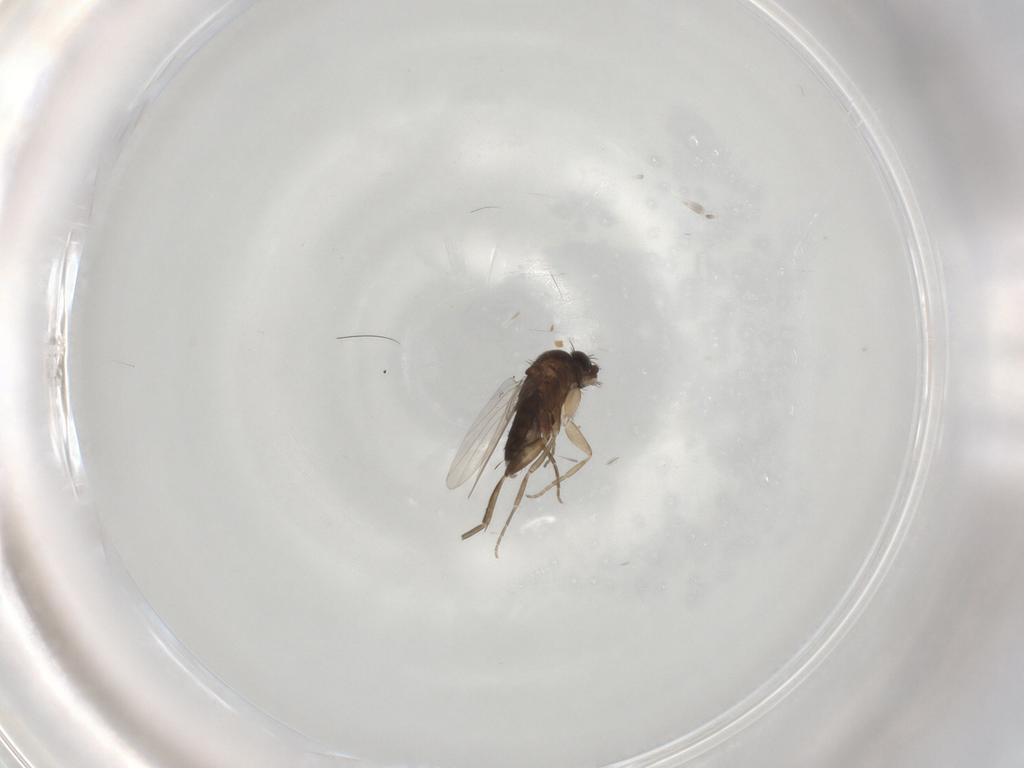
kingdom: Animalia
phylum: Arthropoda
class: Insecta
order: Diptera
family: Phoridae
